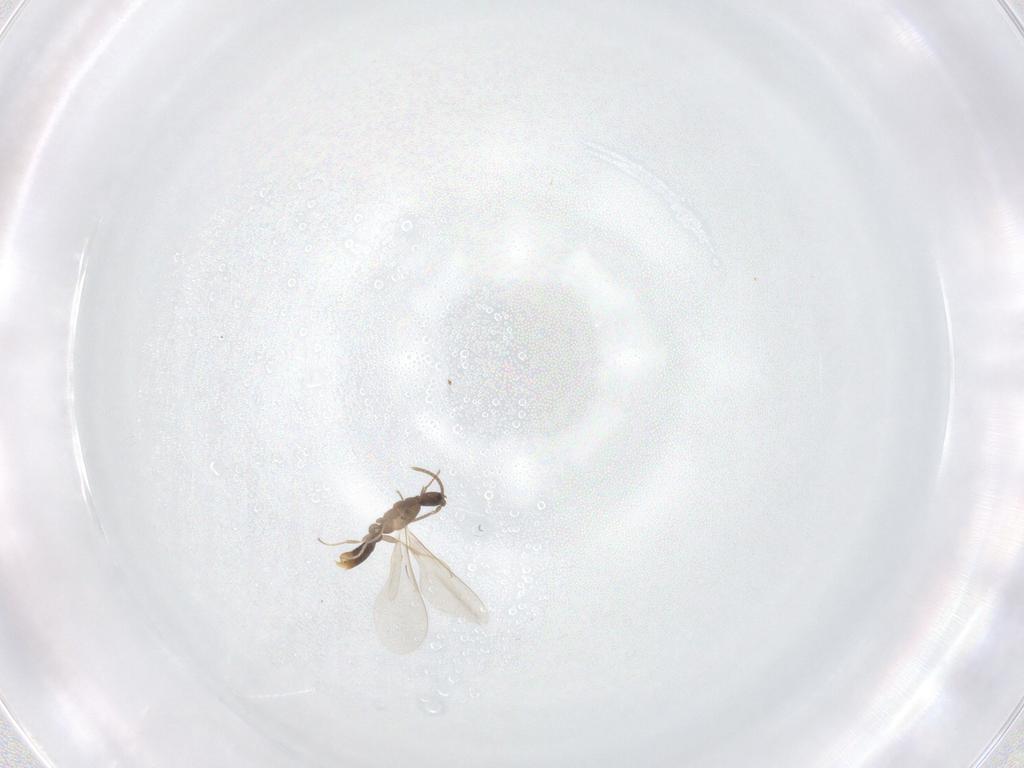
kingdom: Animalia
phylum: Arthropoda
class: Insecta
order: Hymenoptera
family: Formicidae
